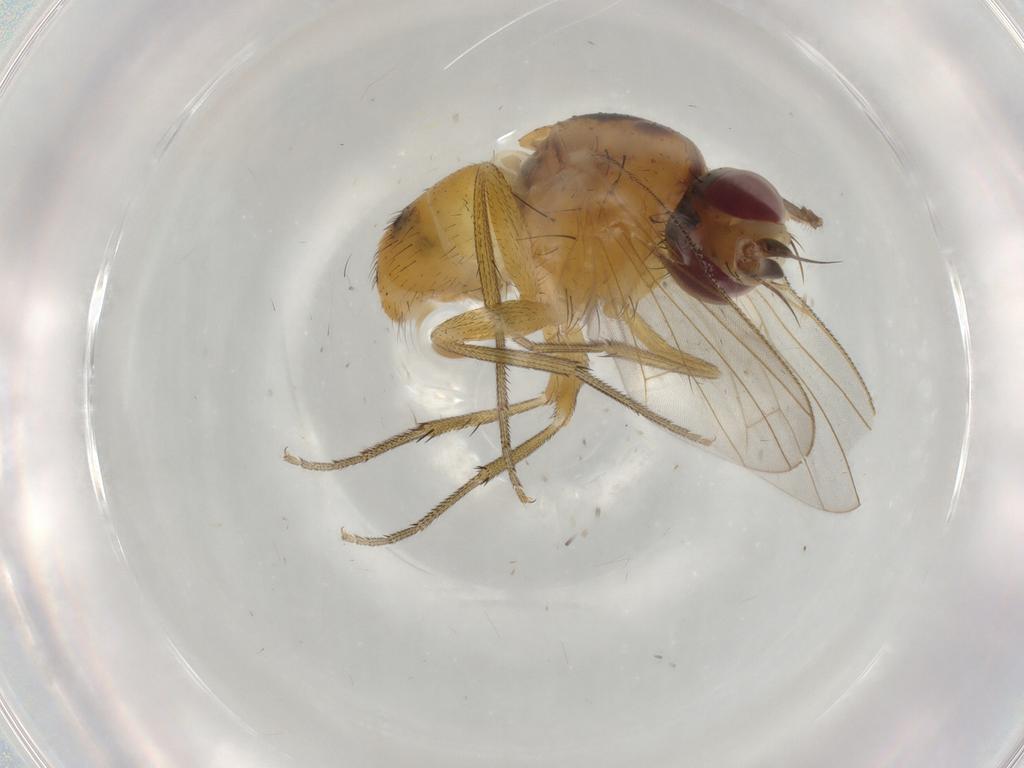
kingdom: Animalia
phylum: Arthropoda
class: Insecta
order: Diptera
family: Muscidae
